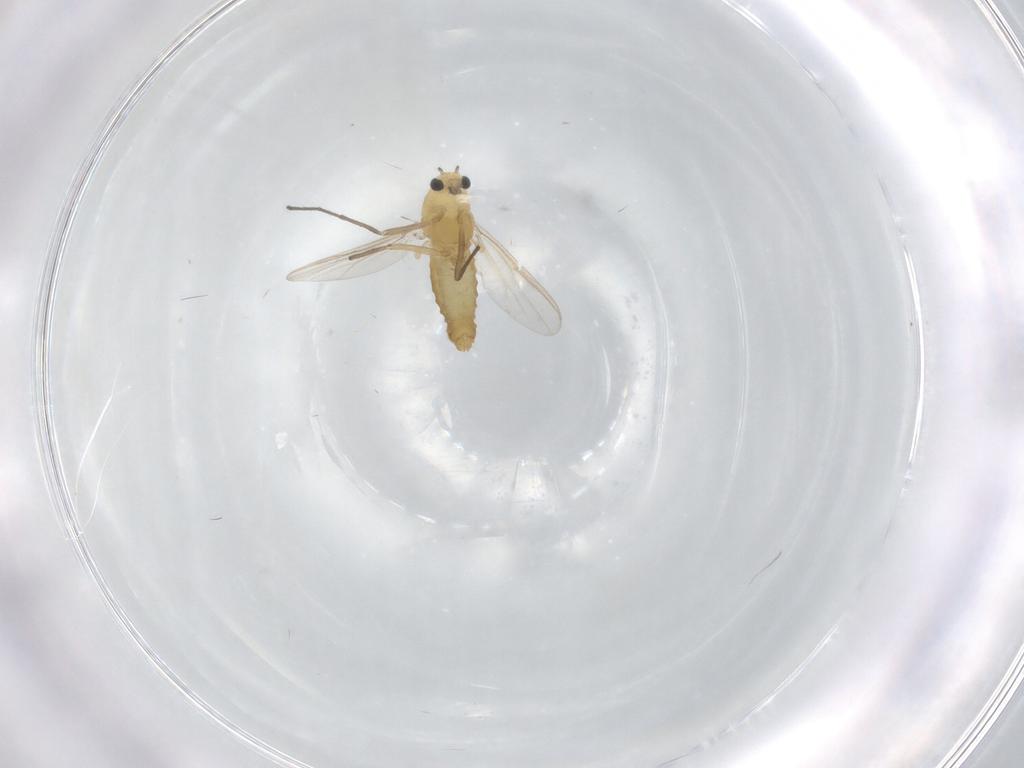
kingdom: Animalia
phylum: Arthropoda
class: Insecta
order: Diptera
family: Chironomidae
